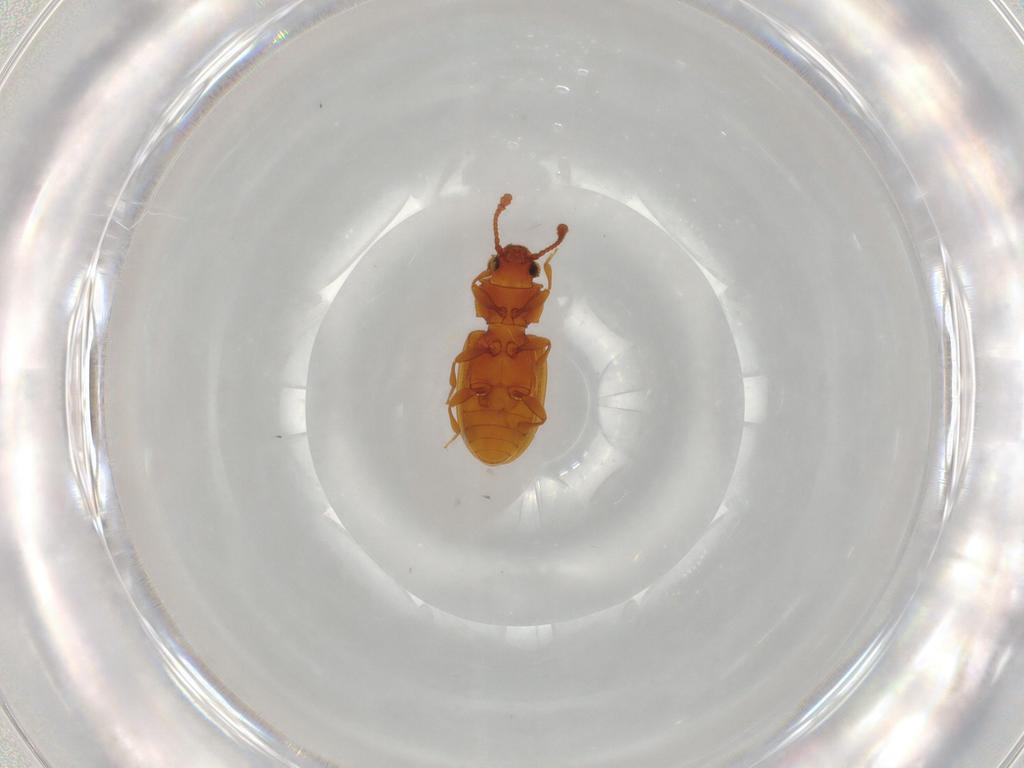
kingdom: Animalia
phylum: Arthropoda
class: Insecta
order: Coleoptera
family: Silvanidae
